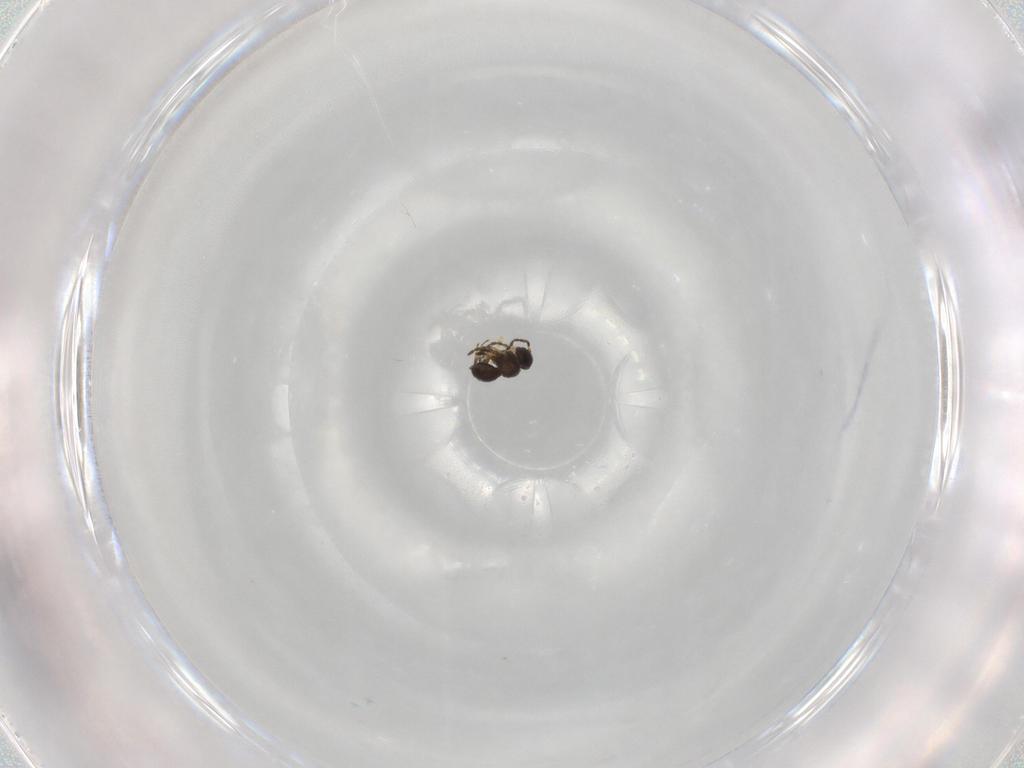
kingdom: Animalia
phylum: Arthropoda
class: Insecta
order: Hymenoptera
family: Scelionidae
